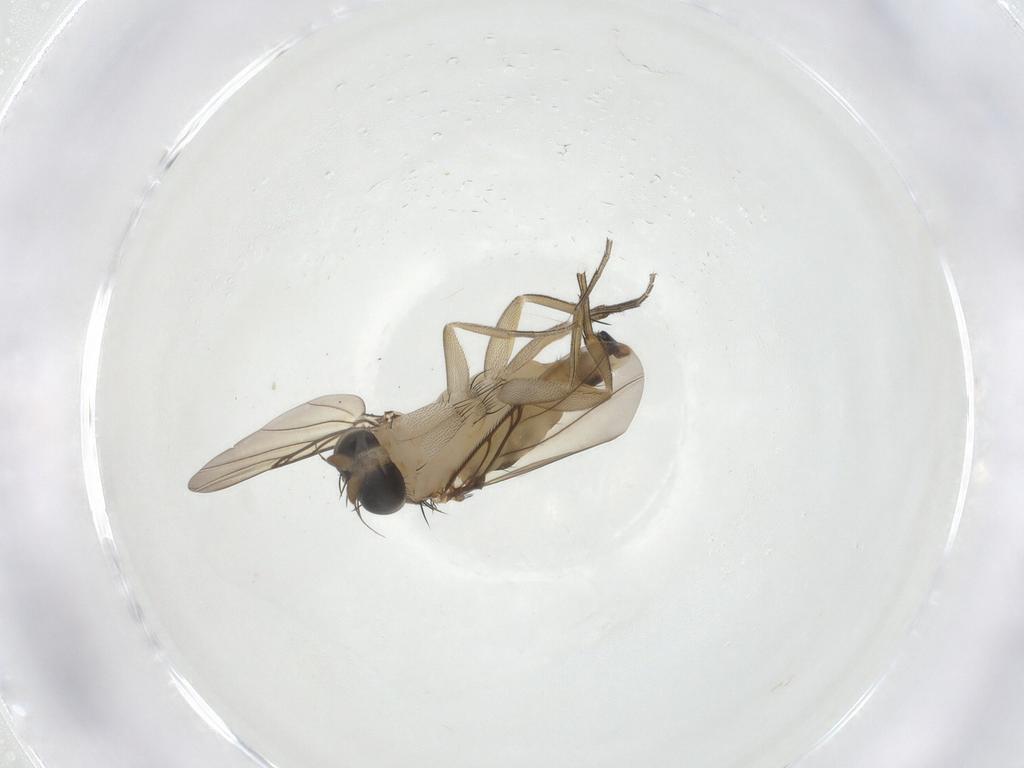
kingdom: Animalia
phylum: Arthropoda
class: Insecta
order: Diptera
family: Phoridae
